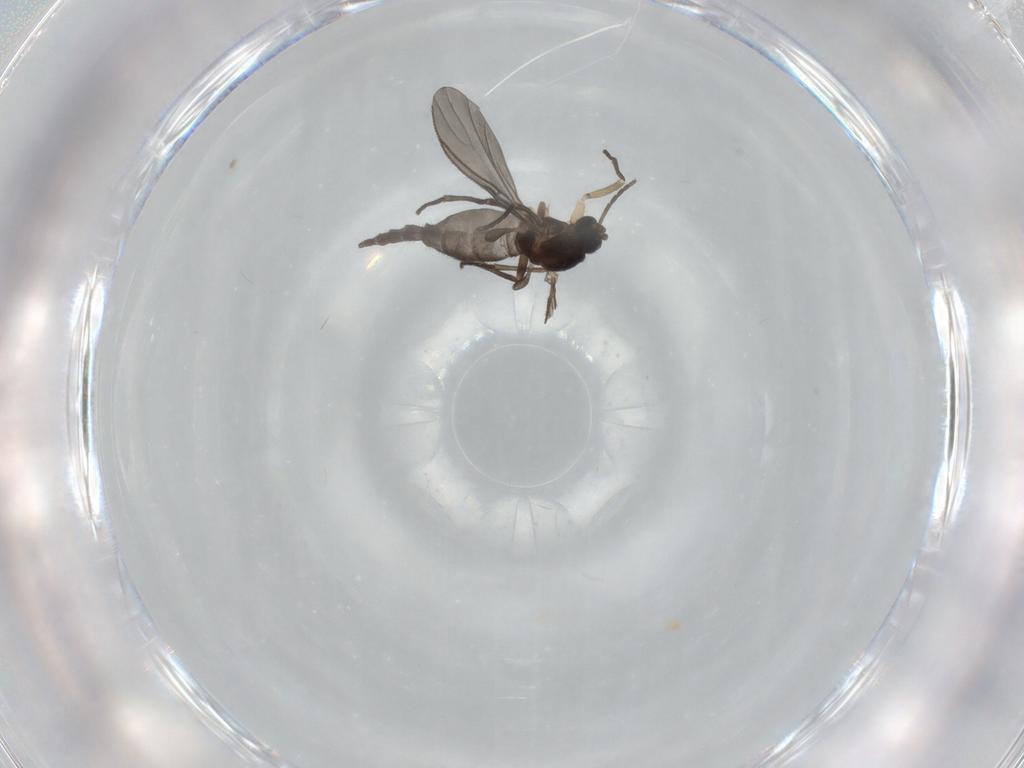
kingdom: Animalia
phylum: Arthropoda
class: Insecta
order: Diptera
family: Sciaridae
